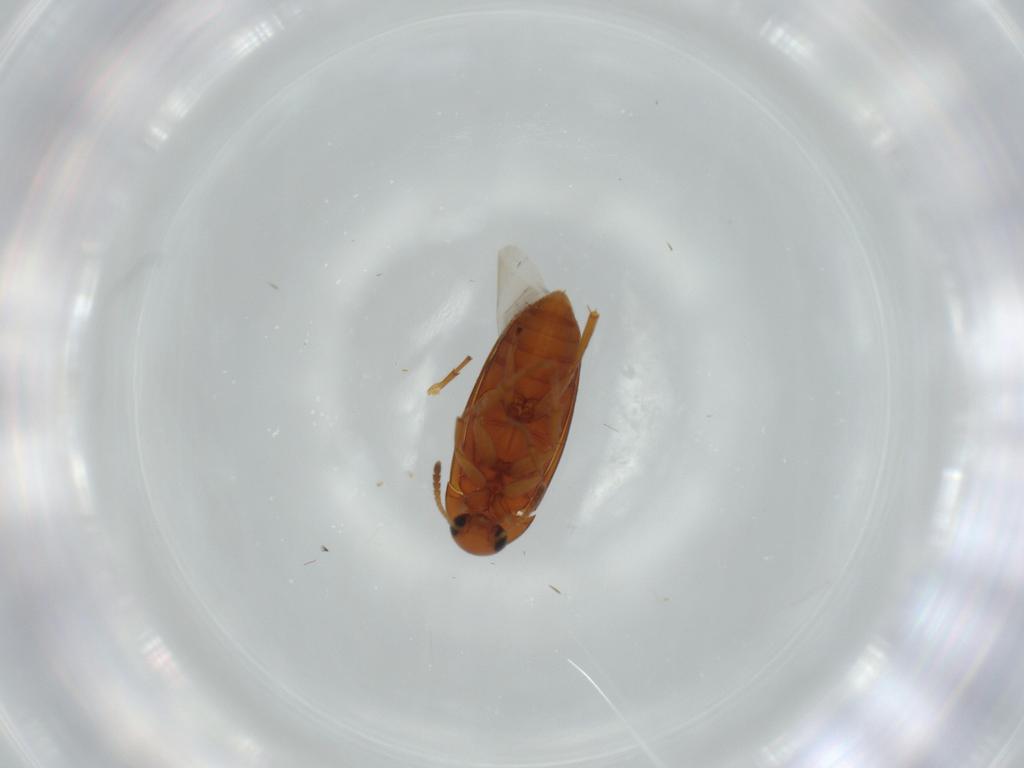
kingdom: Animalia
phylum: Arthropoda
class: Insecta
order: Coleoptera
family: Scraptiidae
